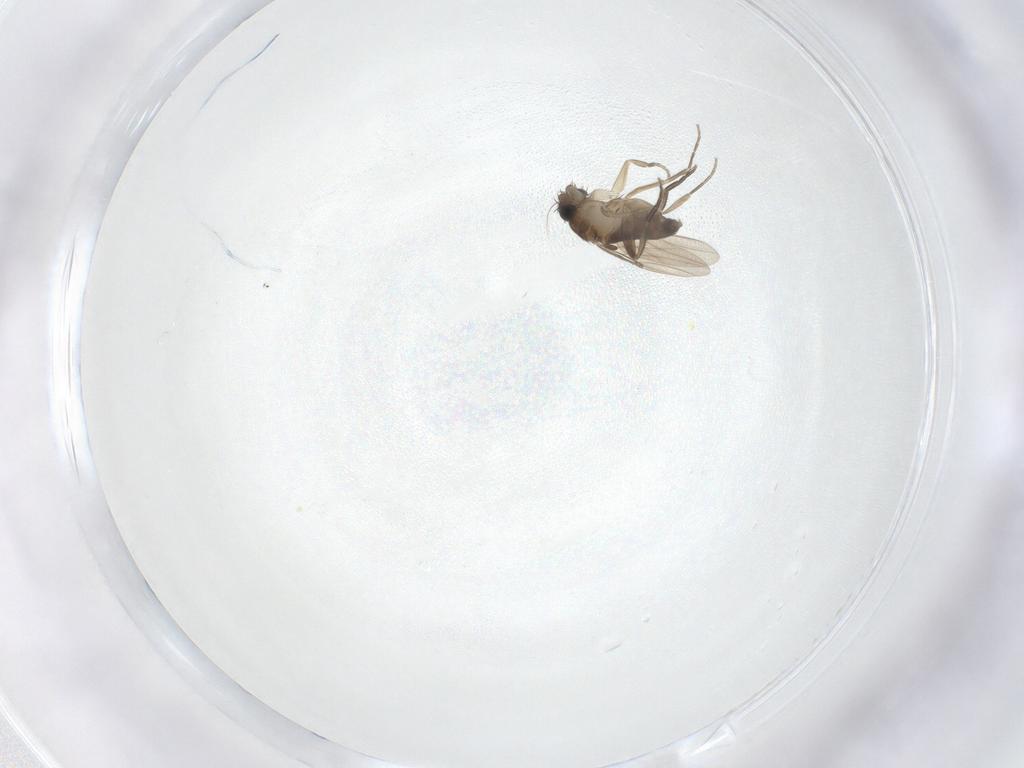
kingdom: Animalia
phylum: Arthropoda
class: Insecta
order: Diptera
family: Phoridae
